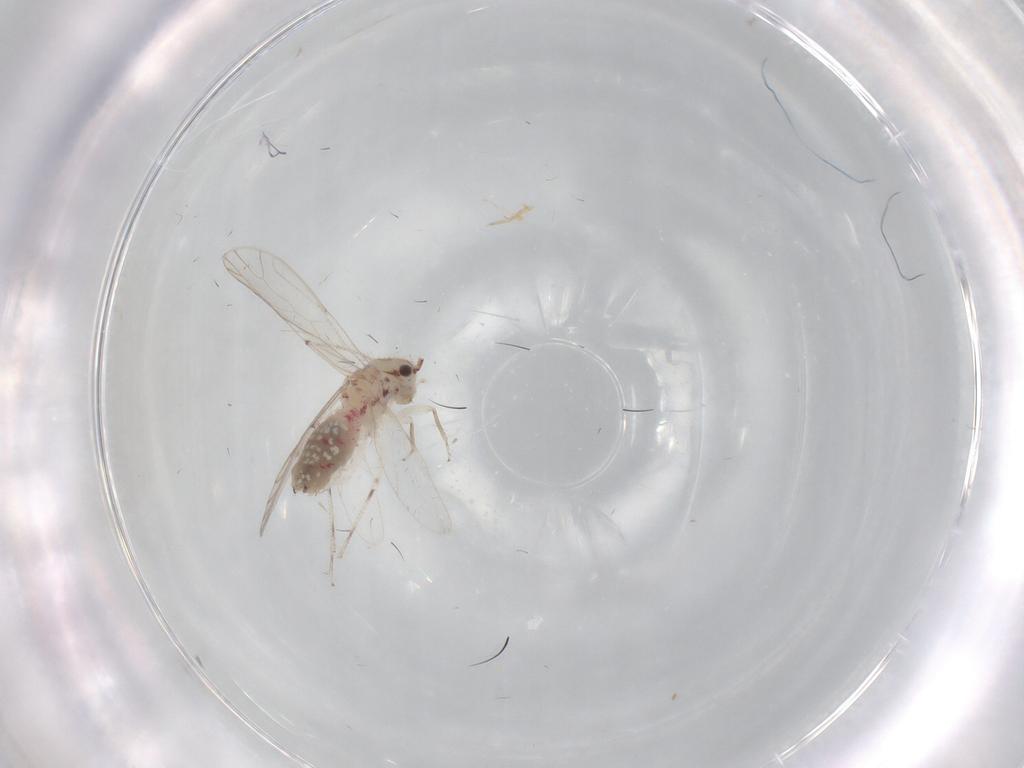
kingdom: Animalia
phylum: Arthropoda
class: Insecta
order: Psocodea
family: Caeciliusidae
